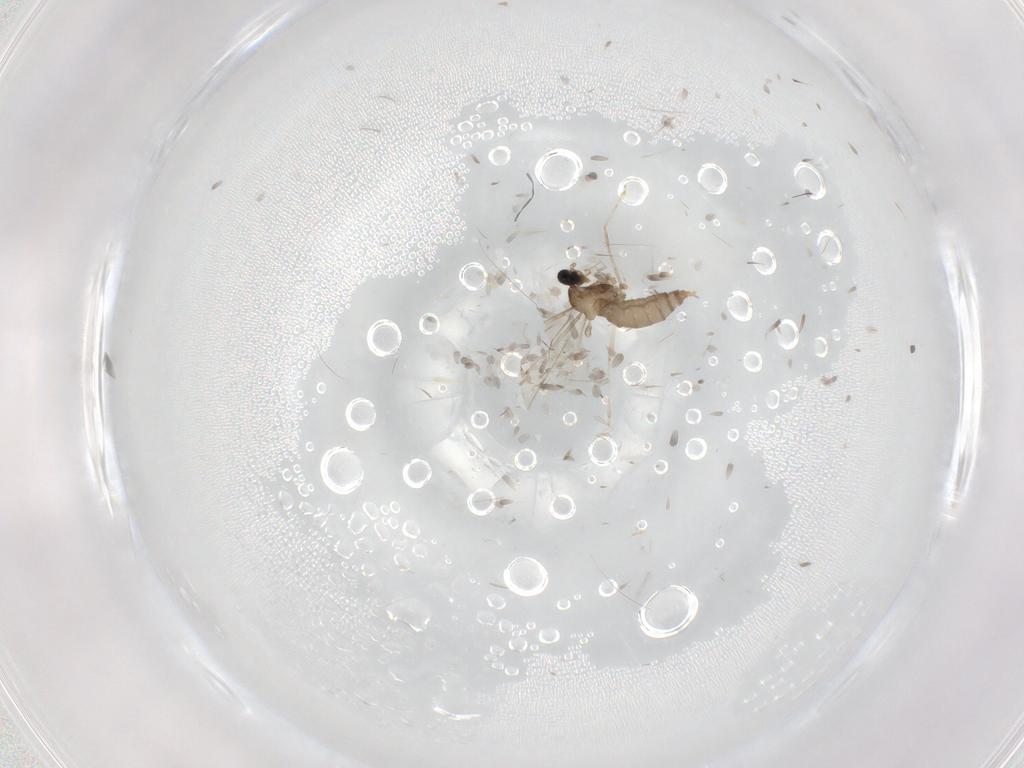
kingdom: Animalia
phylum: Arthropoda
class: Insecta
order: Diptera
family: Cecidomyiidae
